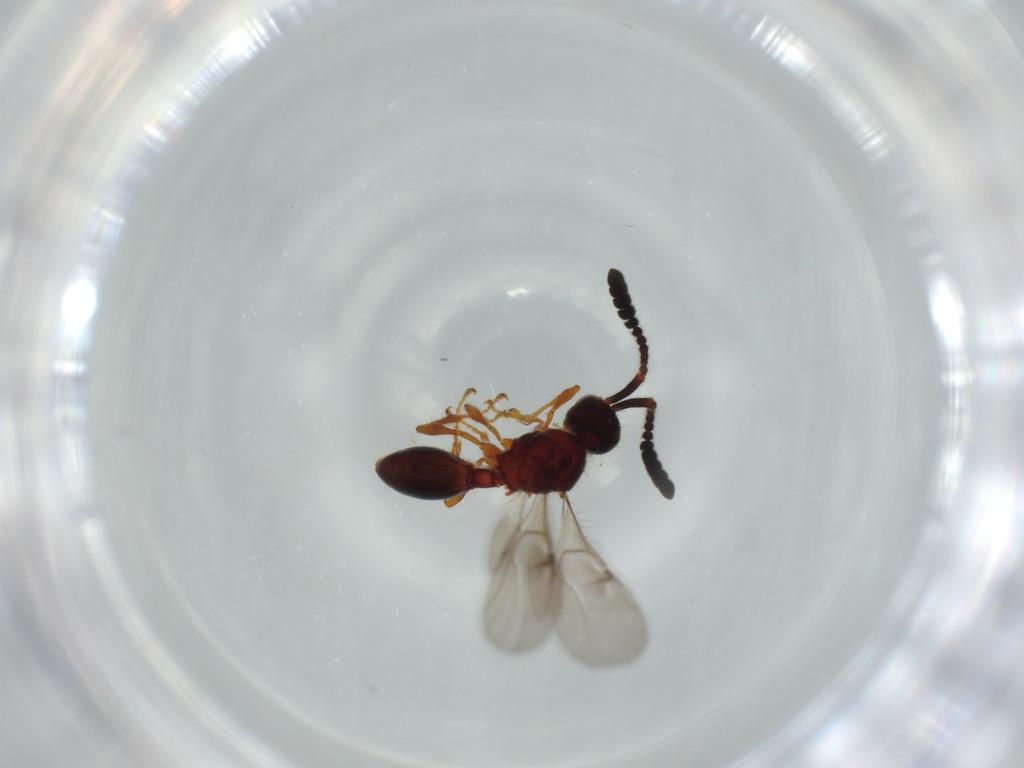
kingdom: Animalia
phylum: Arthropoda
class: Insecta
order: Hymenoptera
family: Diapriidae
